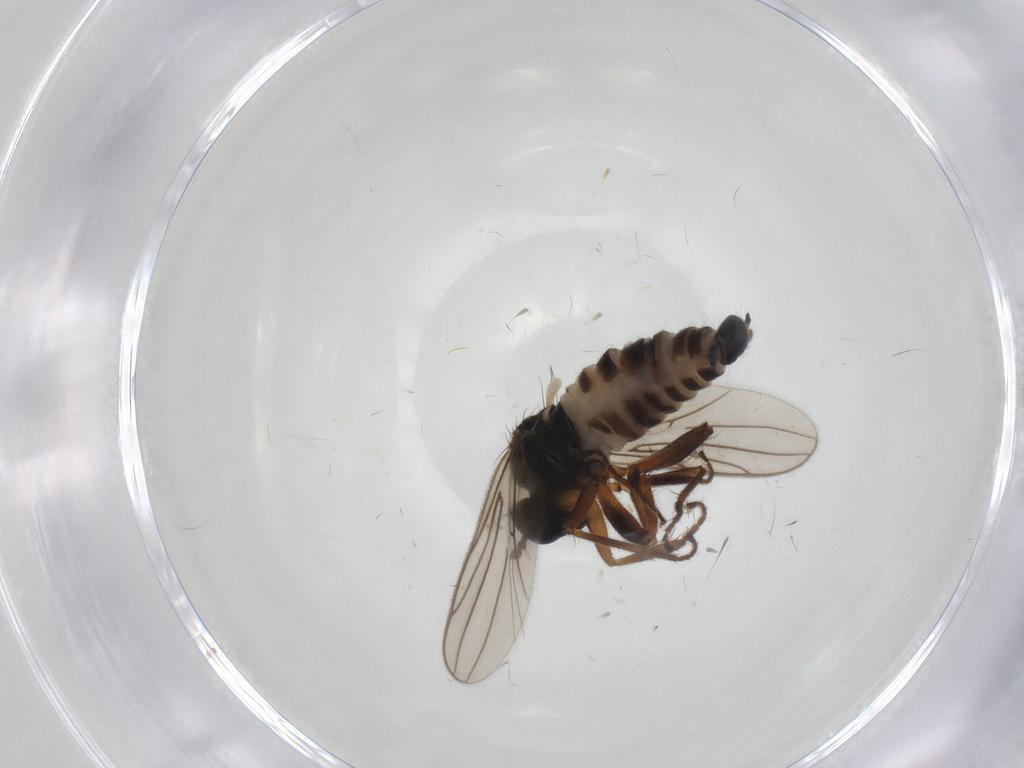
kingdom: Animalia
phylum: Arthropoda
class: Insecta
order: Diptera
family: Hybotidae
